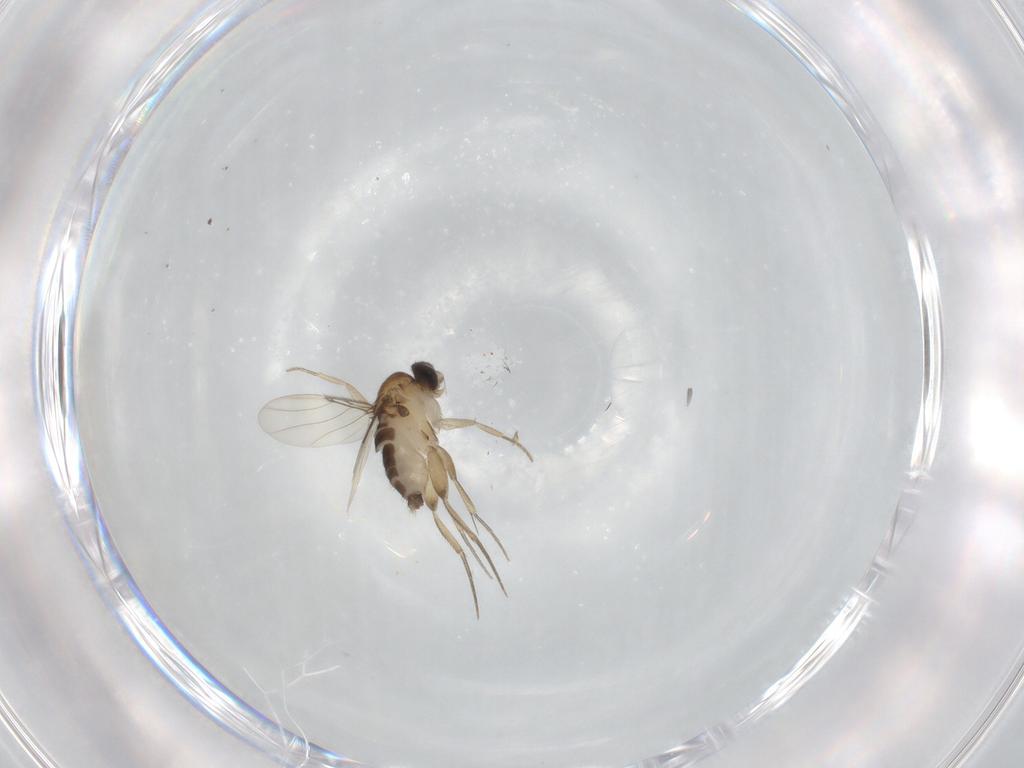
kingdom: Animalia
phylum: Arthropoda
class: Insecta
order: Diptera
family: Phoridae
